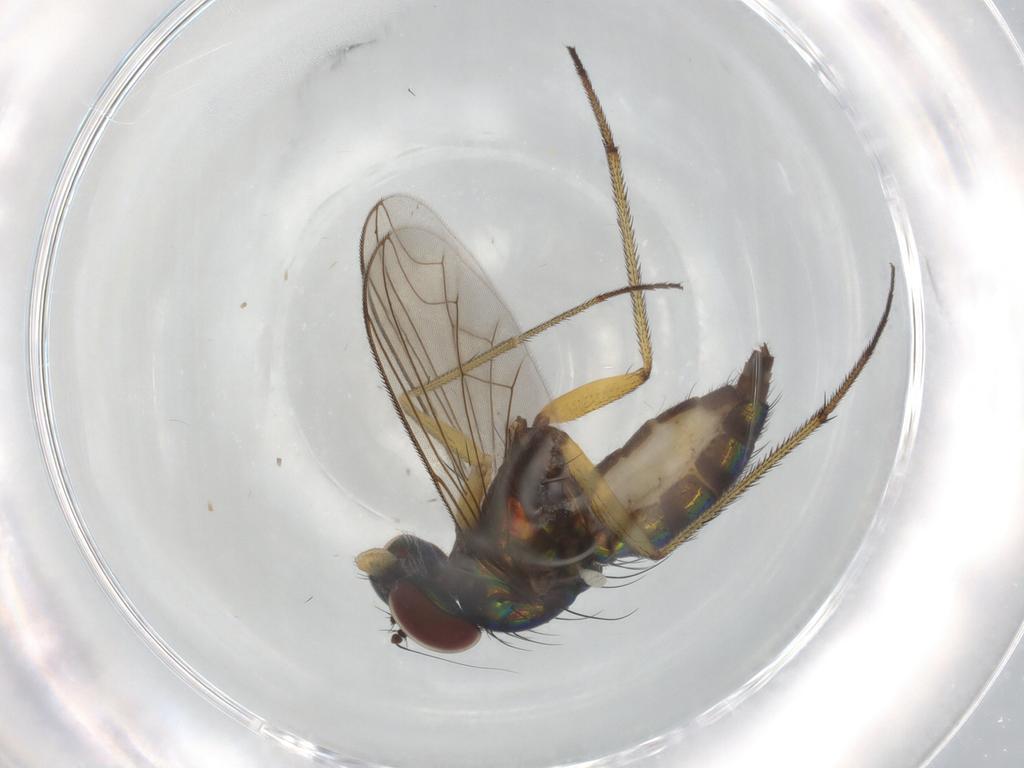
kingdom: Animalia
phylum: Arthropoda
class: Insecta
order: Diptera
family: Dolichopodidae
